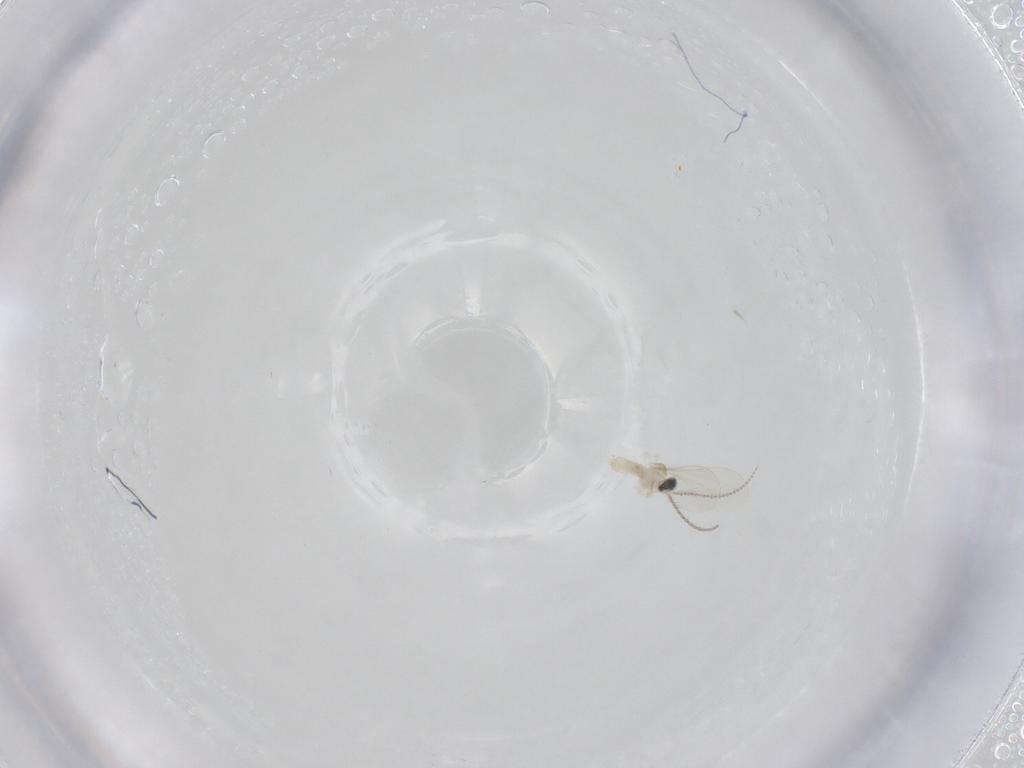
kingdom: Animalia
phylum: Arthropoda
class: Insecta
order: Diptera
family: Cecidomyiidae
